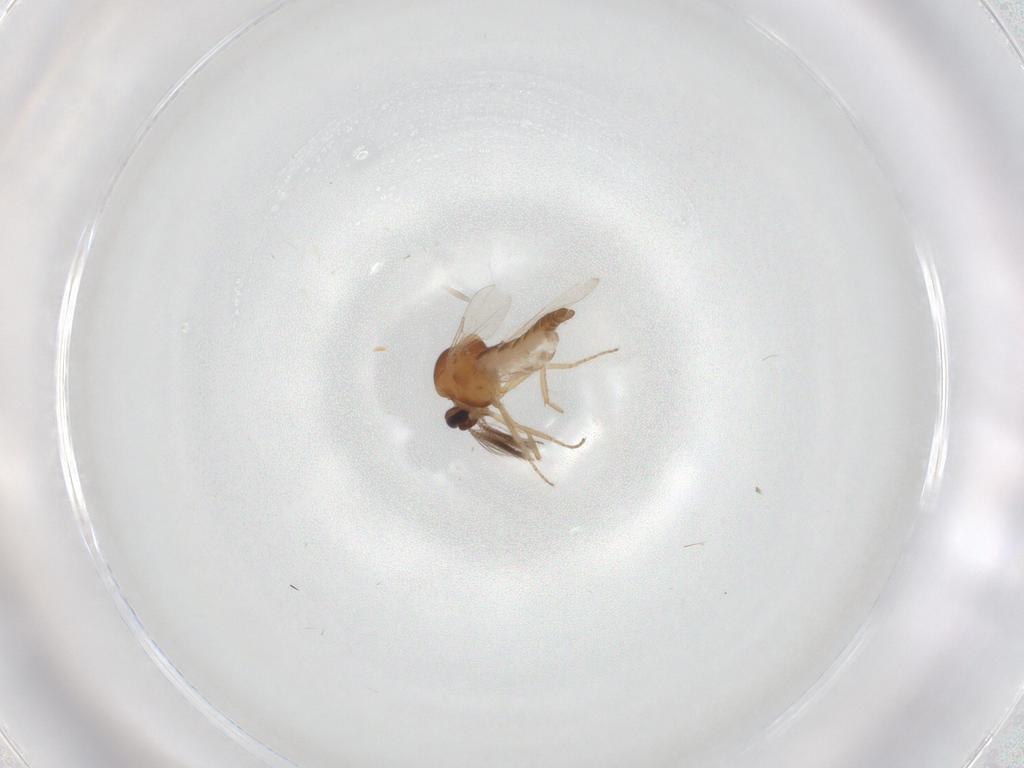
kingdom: Animalia
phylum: Arthropoda
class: Insecta
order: Diptera
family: Ceratopogonidae
